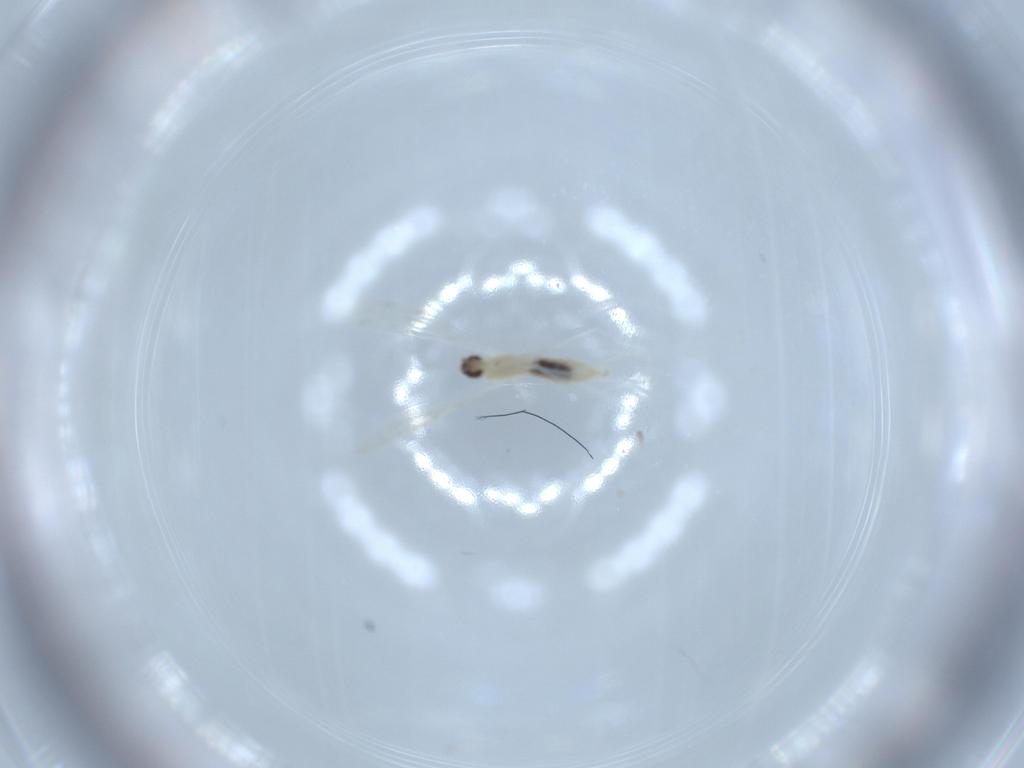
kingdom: Animalia
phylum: Arthropoda
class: Insecta
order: Diptera
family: Cecidomyiidae
